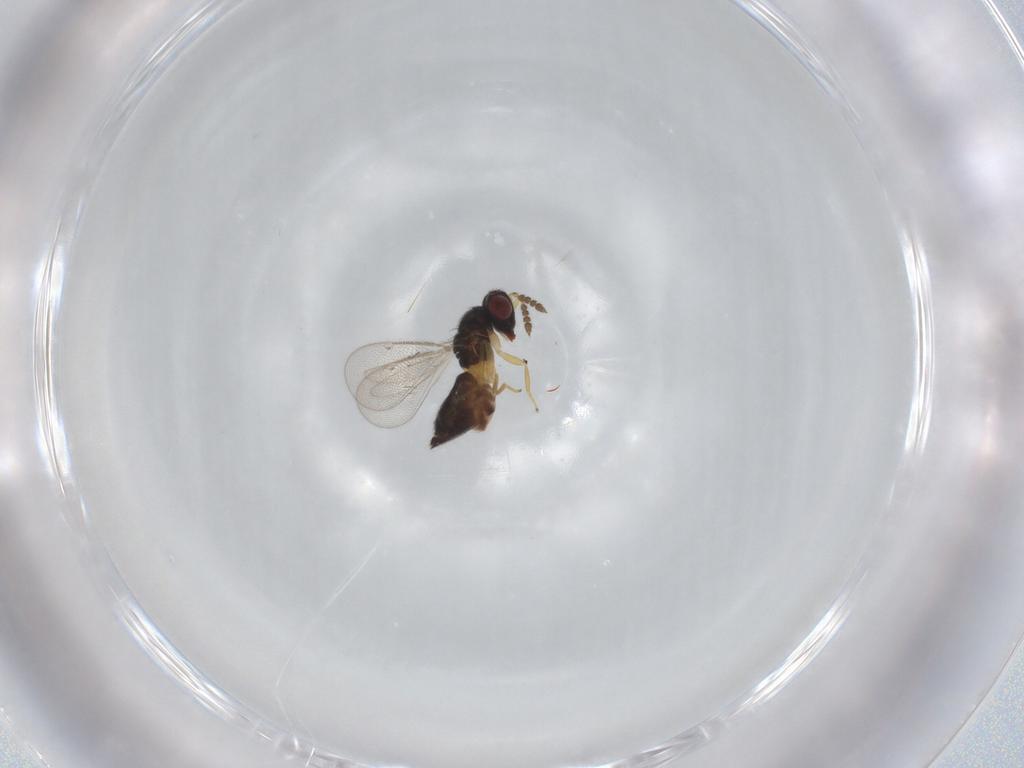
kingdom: Animalia
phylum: Arthropoda
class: Insecta
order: Hymenoptera
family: Eulophidae
